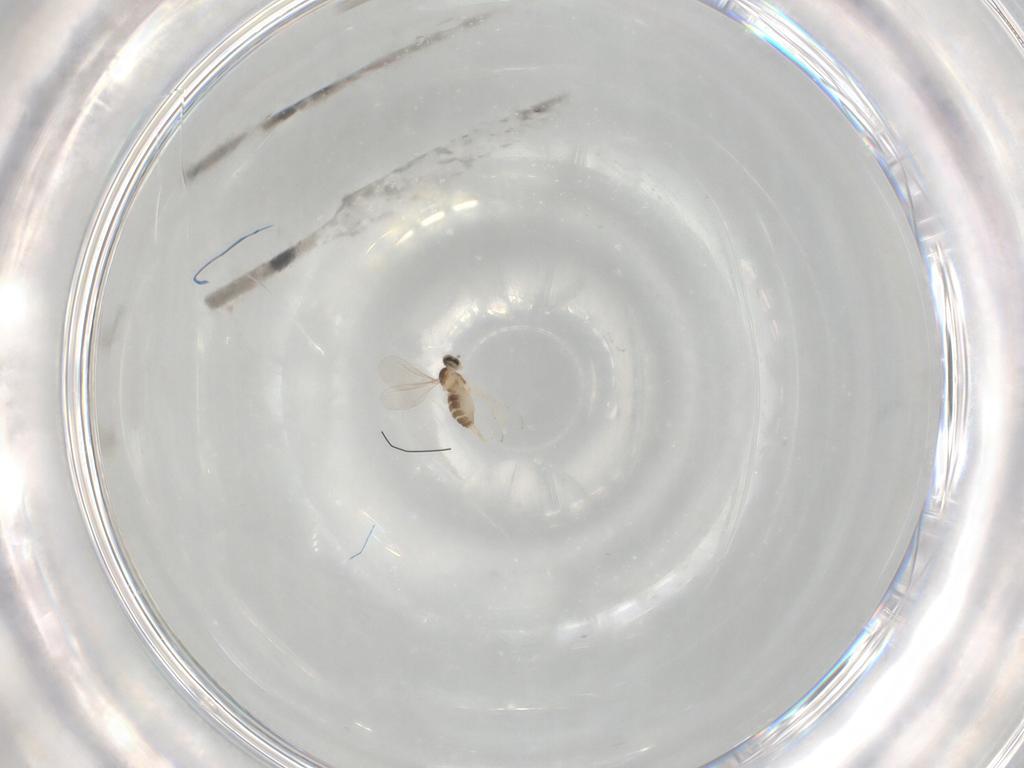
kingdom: Animalia
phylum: Arthropoda
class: Insecta
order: Diptera
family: Cecidomyiidae
